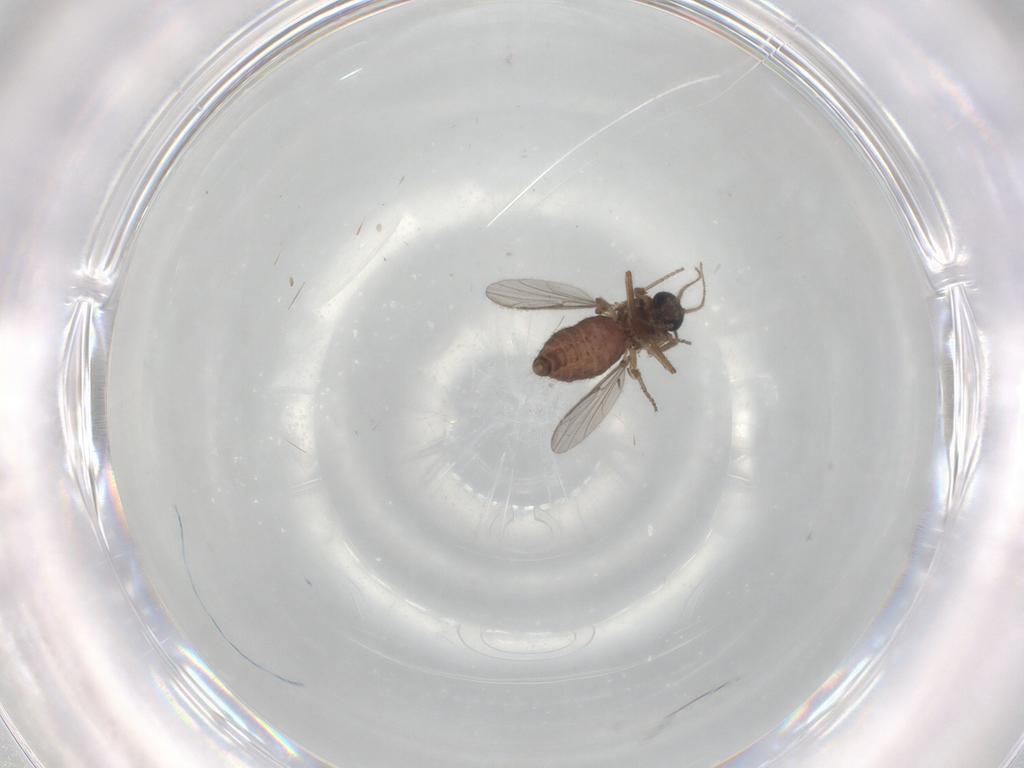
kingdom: Animalia
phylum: Arthropoda
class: Insecta
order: Diptera
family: Ceratopogonidae
